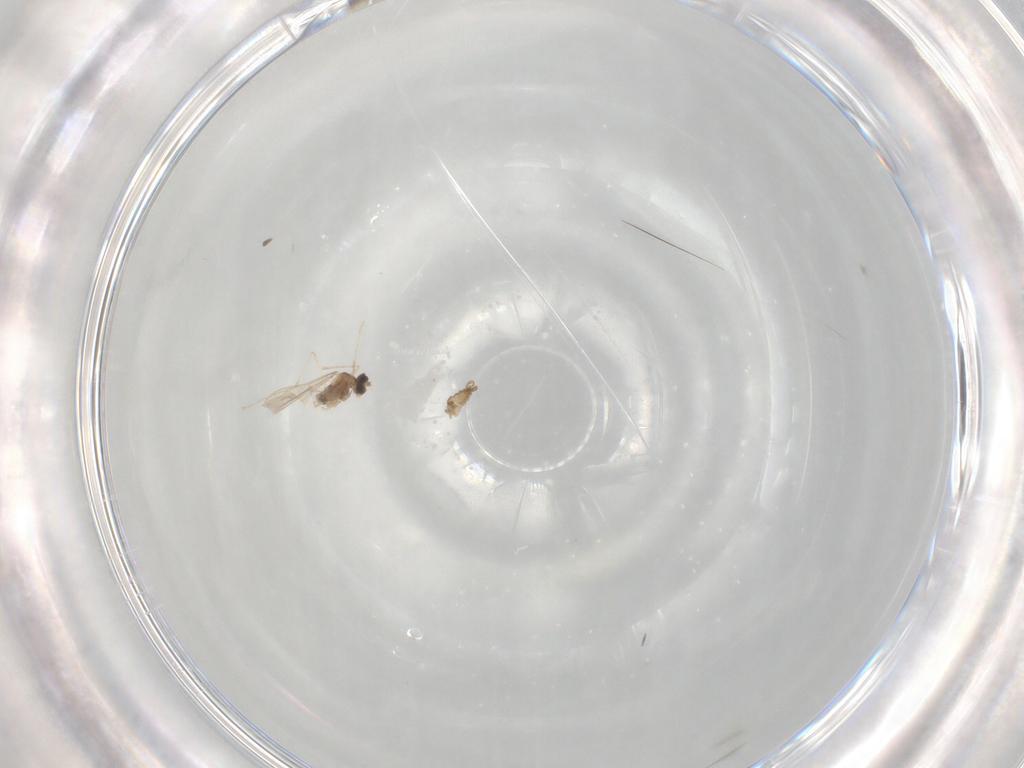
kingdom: Animalia
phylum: Arthropoda
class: Insecta
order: Diptera
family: Cecidomyiidae
